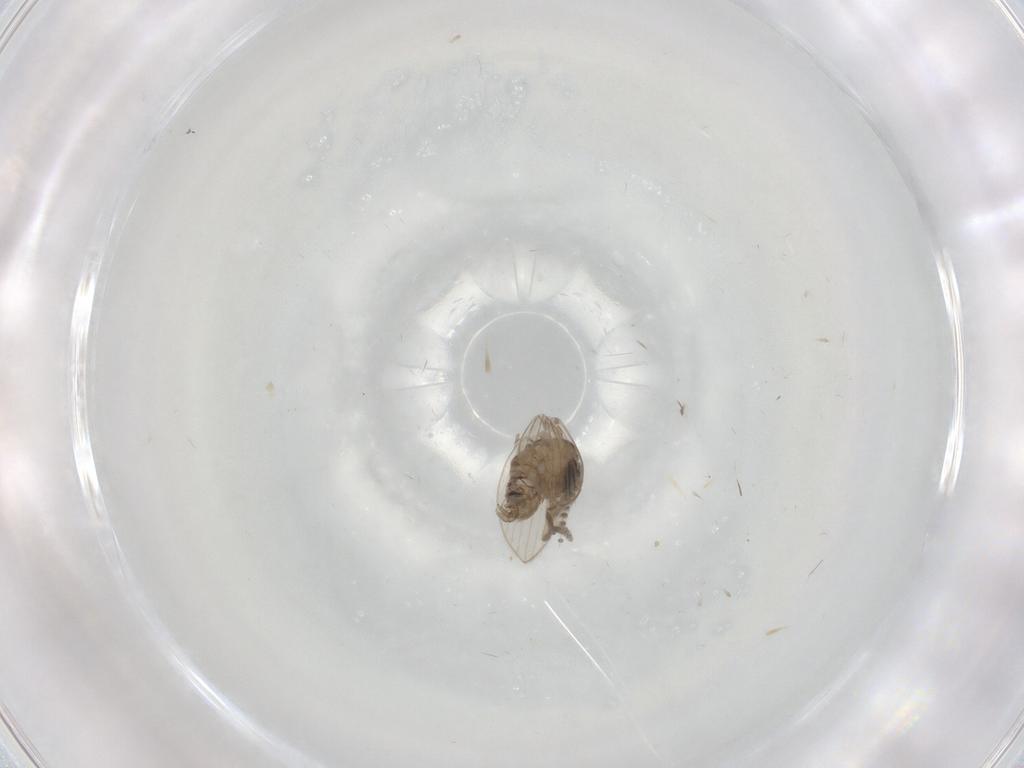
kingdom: Animalia
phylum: Arthropoda
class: Insecta
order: Diptera
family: Phoridae
